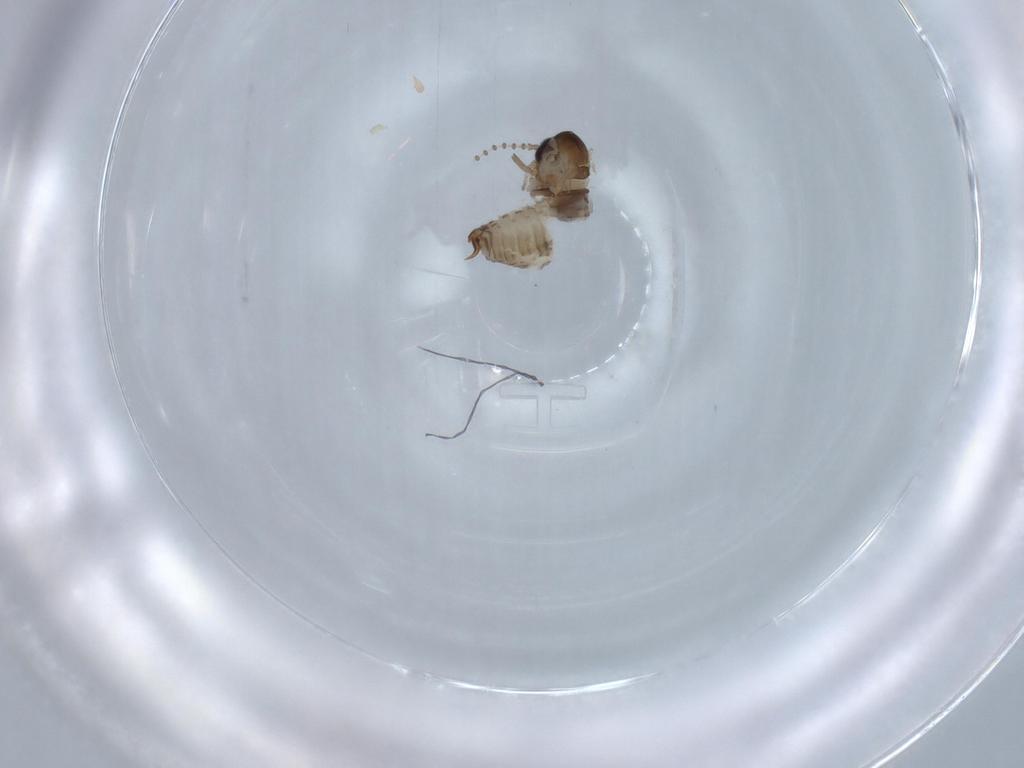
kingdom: Animalia
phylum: Arthropoda
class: Insecta
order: Diptera
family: Psychodidae
